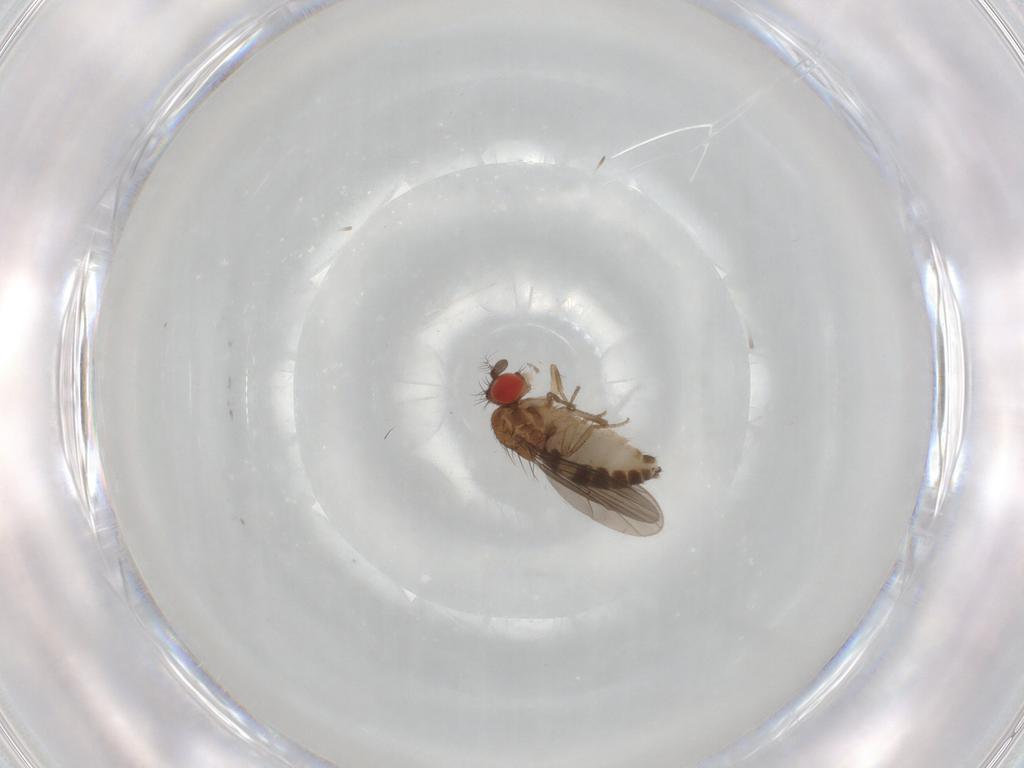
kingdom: Animalia
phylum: Arthropoda
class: Insecta
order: Diptera
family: Drosophilidae
